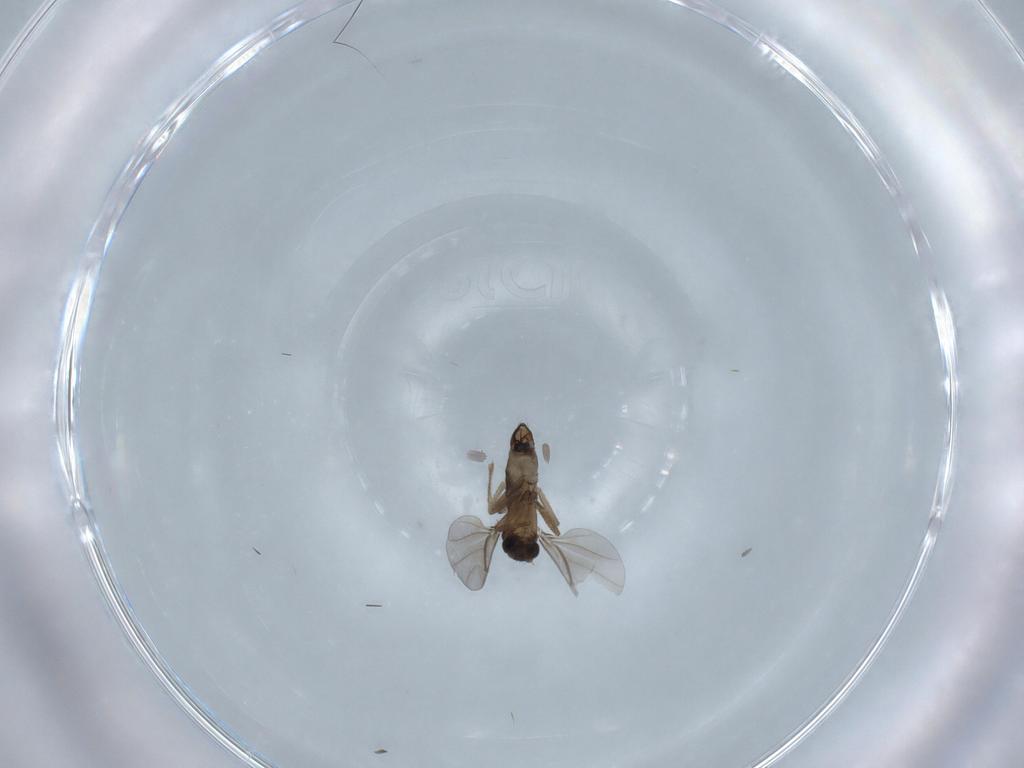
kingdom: Animalia
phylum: Arthropoda
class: Insecta
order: Diptera
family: Phoridae
